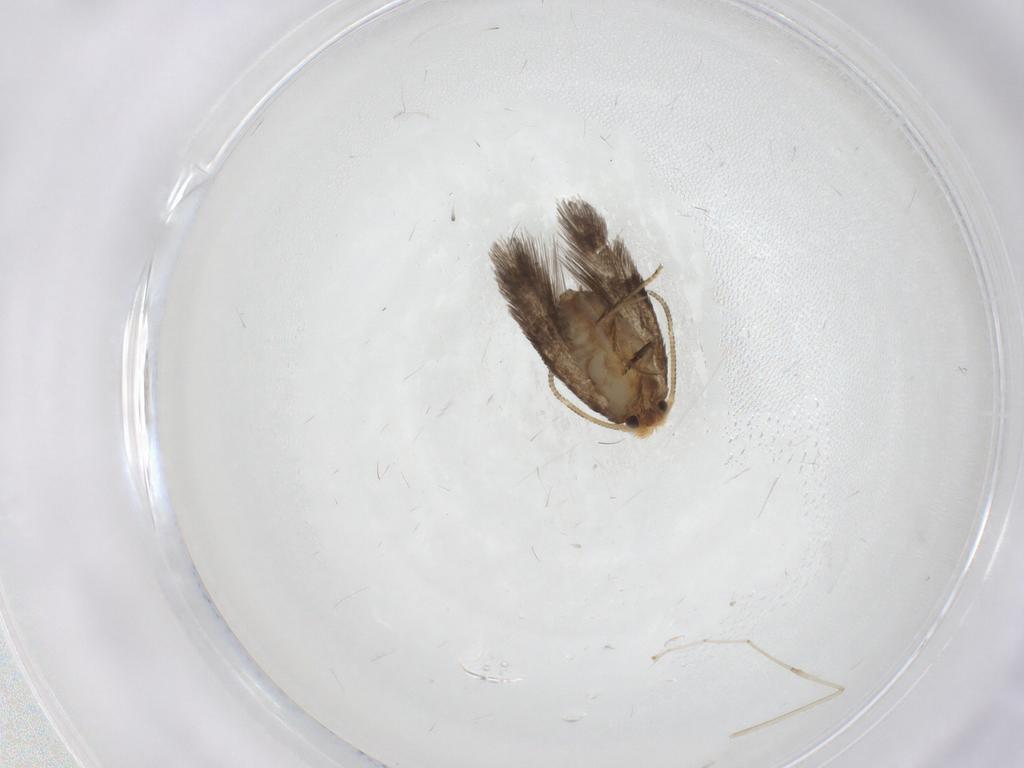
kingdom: Animalia
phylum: Arthropoda
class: Insecta
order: Lepidoptera
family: Nepticulidae
